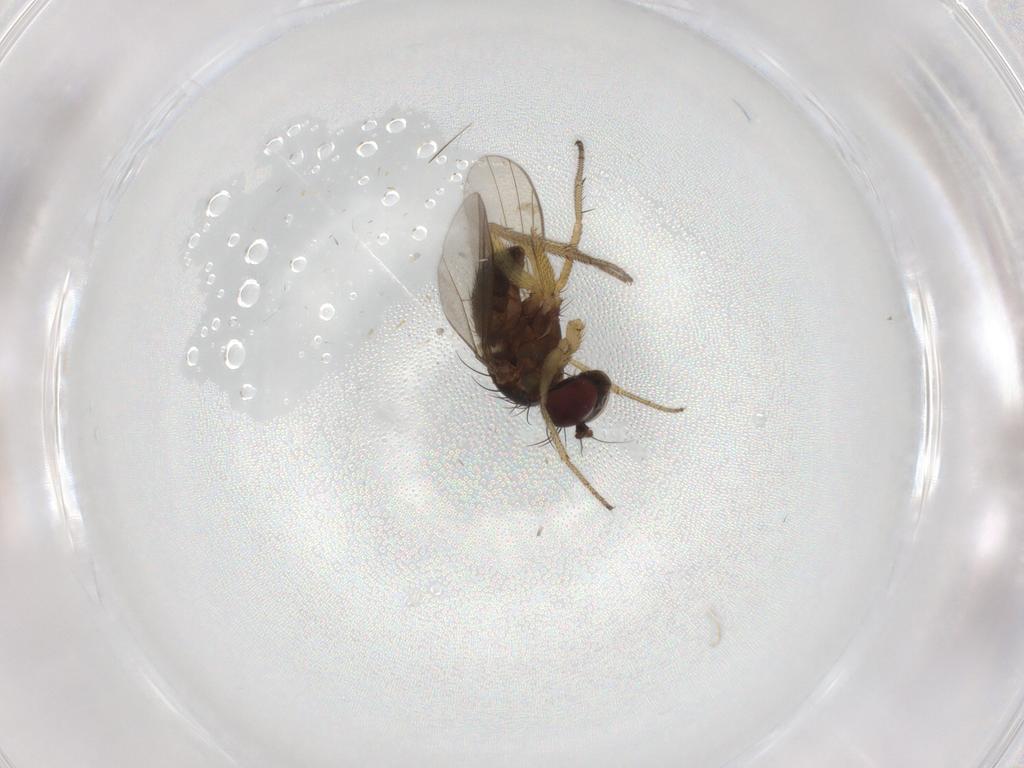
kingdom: Animalia
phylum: Arthropoda
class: Insecta
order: Diptera
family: Dolichopodidae
